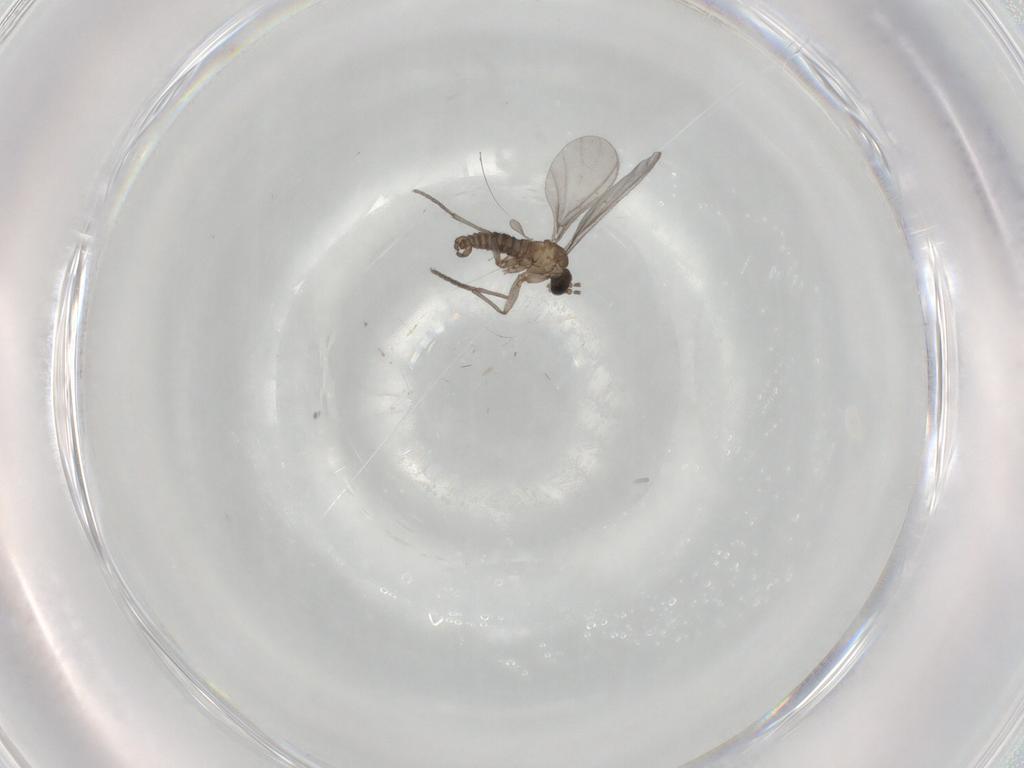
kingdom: Animalia
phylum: Arthropoda
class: Insecta
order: Diptera
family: Sciaridae
